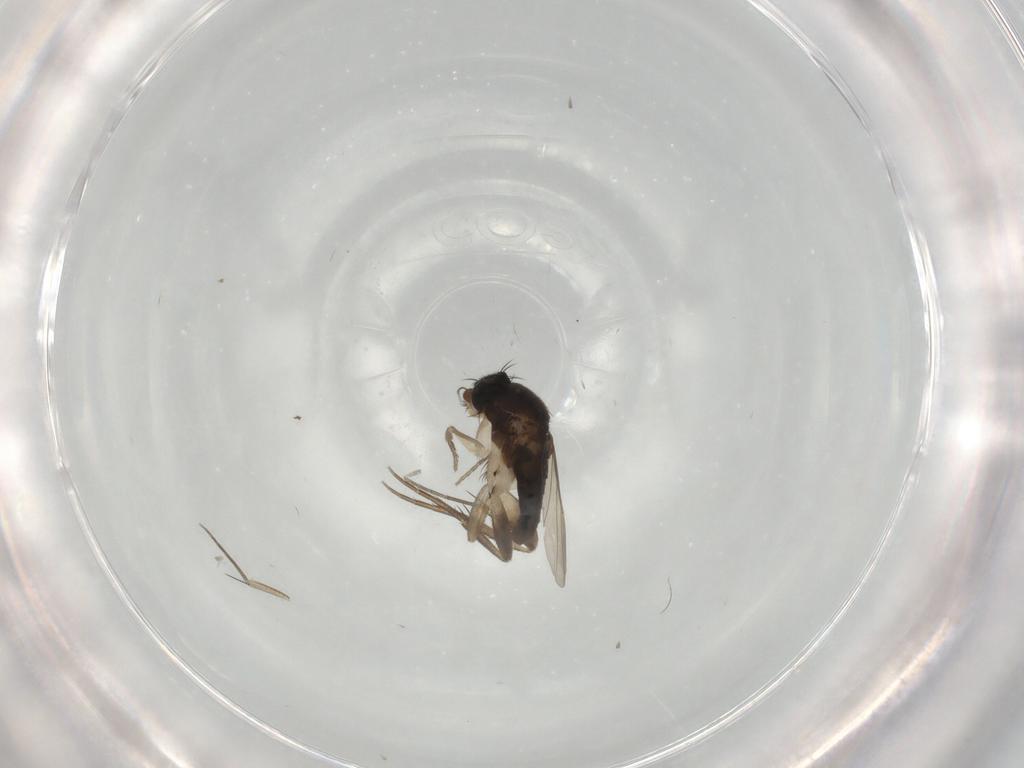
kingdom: Animalia
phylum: Arthropoda
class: Insecta
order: Diptera
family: Phoridae
